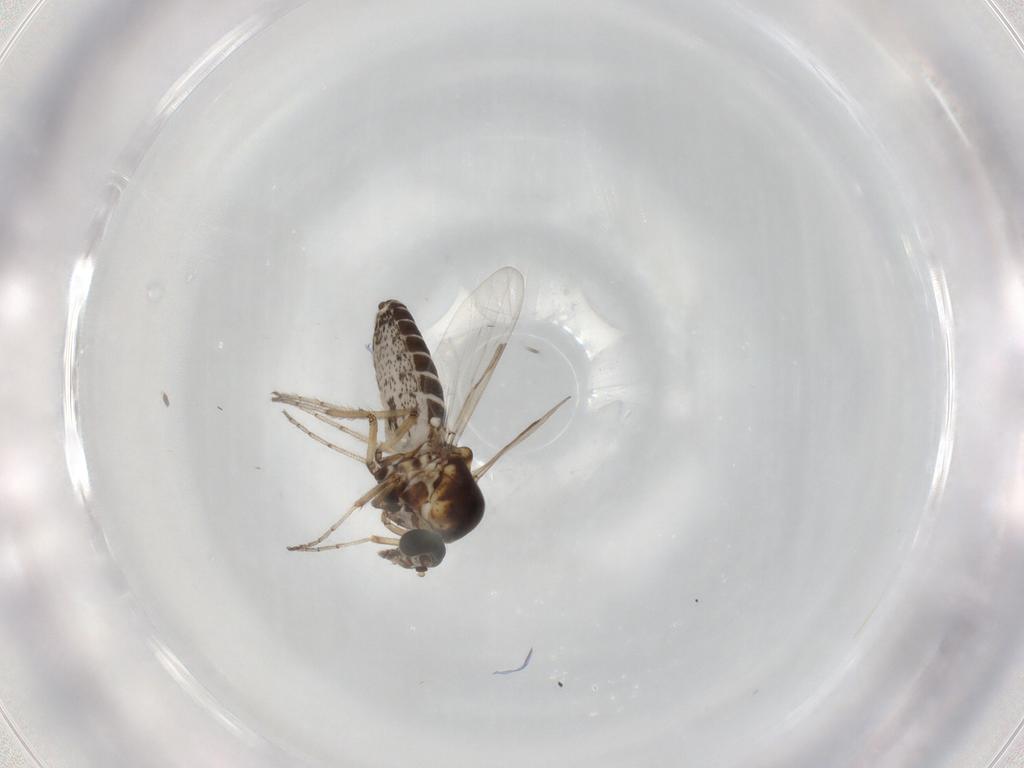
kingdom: Animalia
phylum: Arthropoda
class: Insecta
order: Diptera
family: Ceratopogonidae
